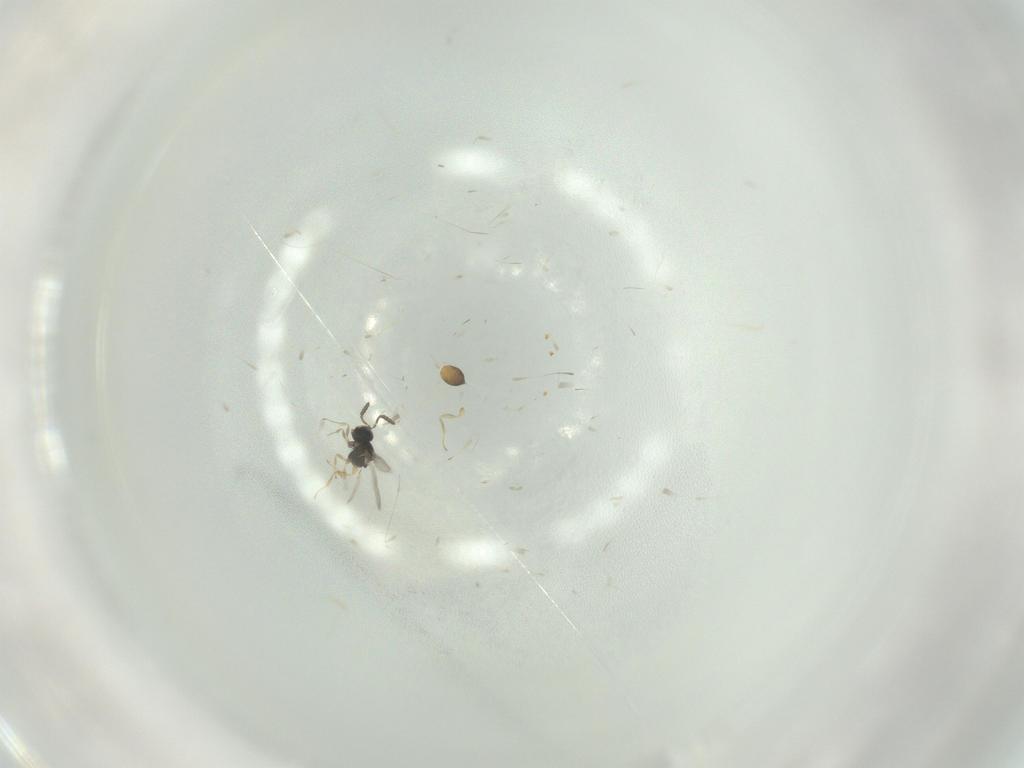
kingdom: Animalia
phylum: Arthropoda
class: Insecta
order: Hymenoptera
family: Scelionidae
